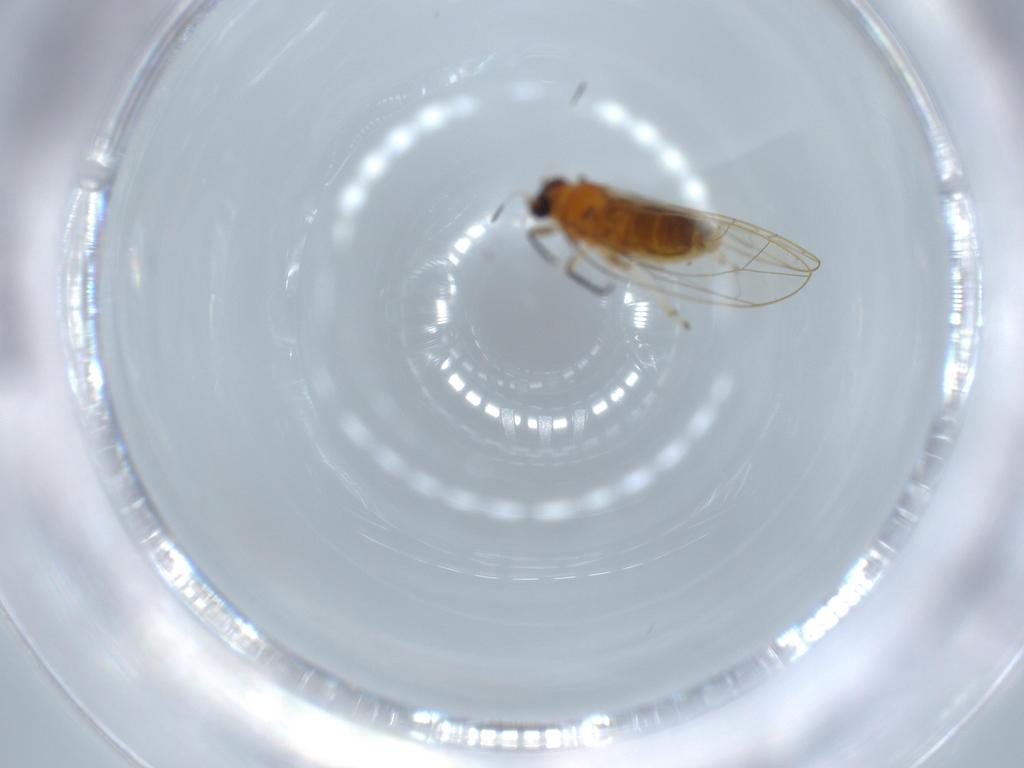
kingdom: Animalia
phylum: Arthropoda
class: Insecta
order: Hemiptera
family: Triozidae
